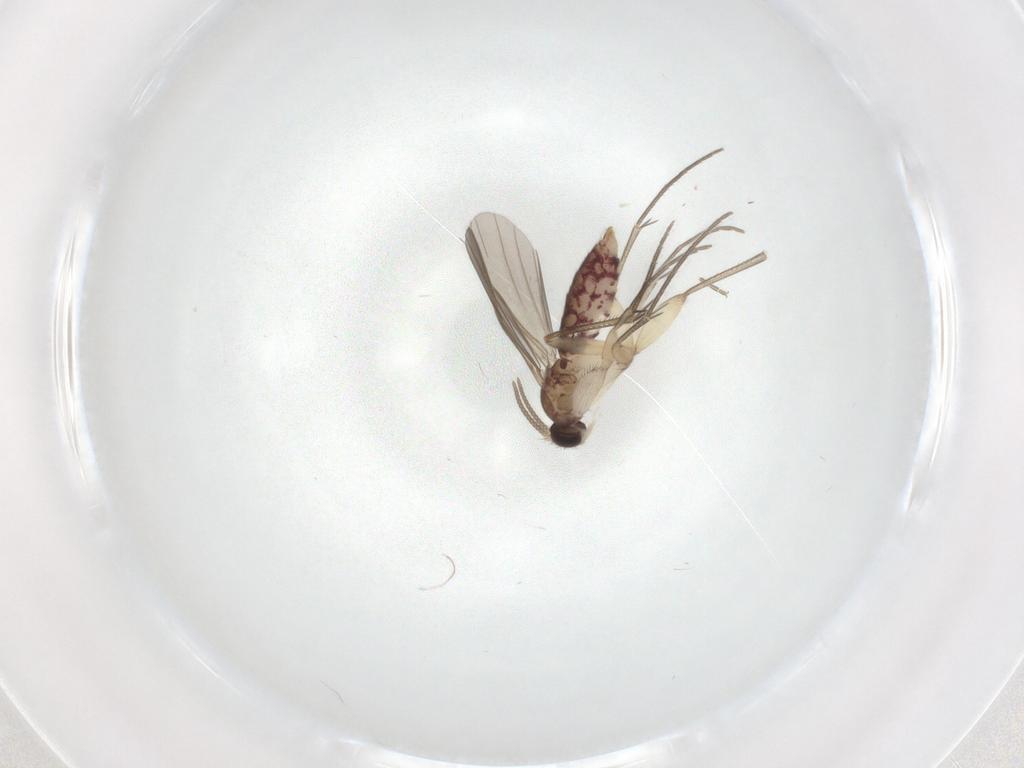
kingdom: Animalia
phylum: Arthropoda
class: Insecta
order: Diptera
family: Mycetophilidae
